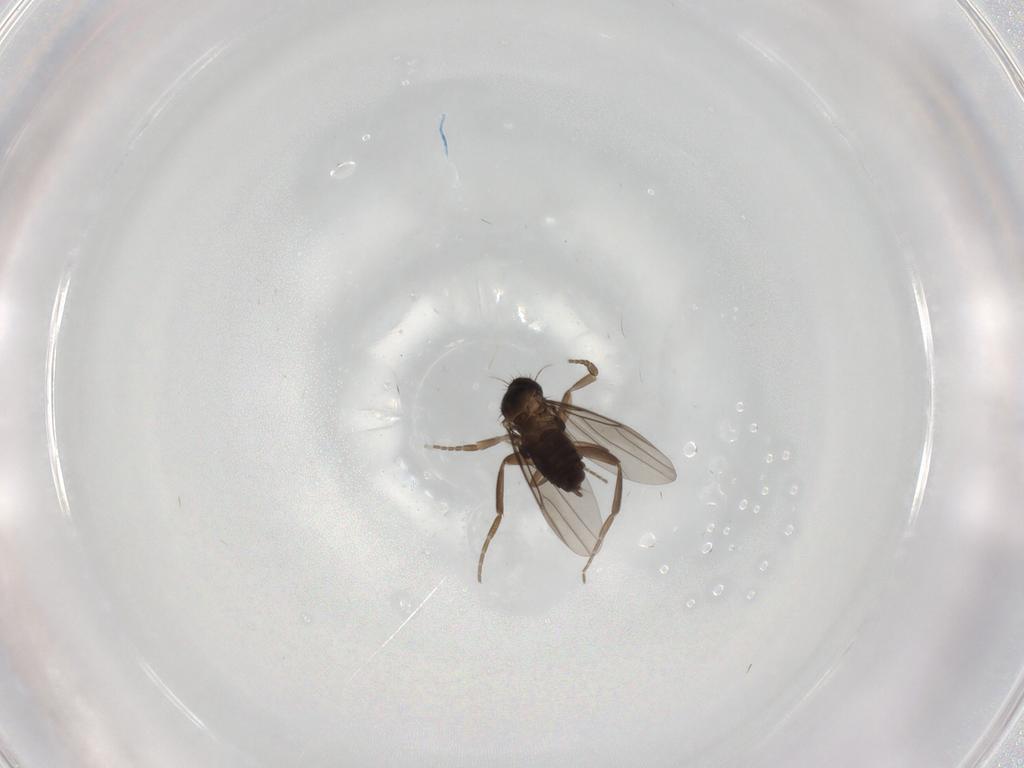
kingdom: Animalia
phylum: Arthropoda
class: Insecta
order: Diptera
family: Phoridae
